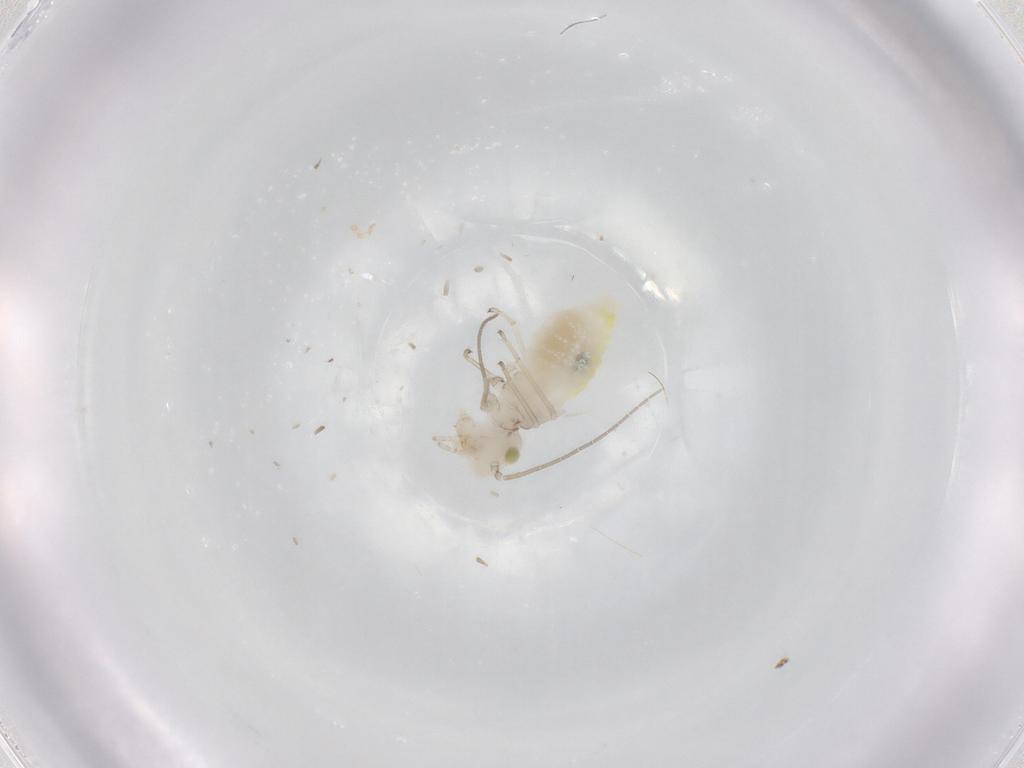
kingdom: Animalia
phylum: Arthropoda
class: Insecta
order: Psocodea
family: Caeciliusidae
